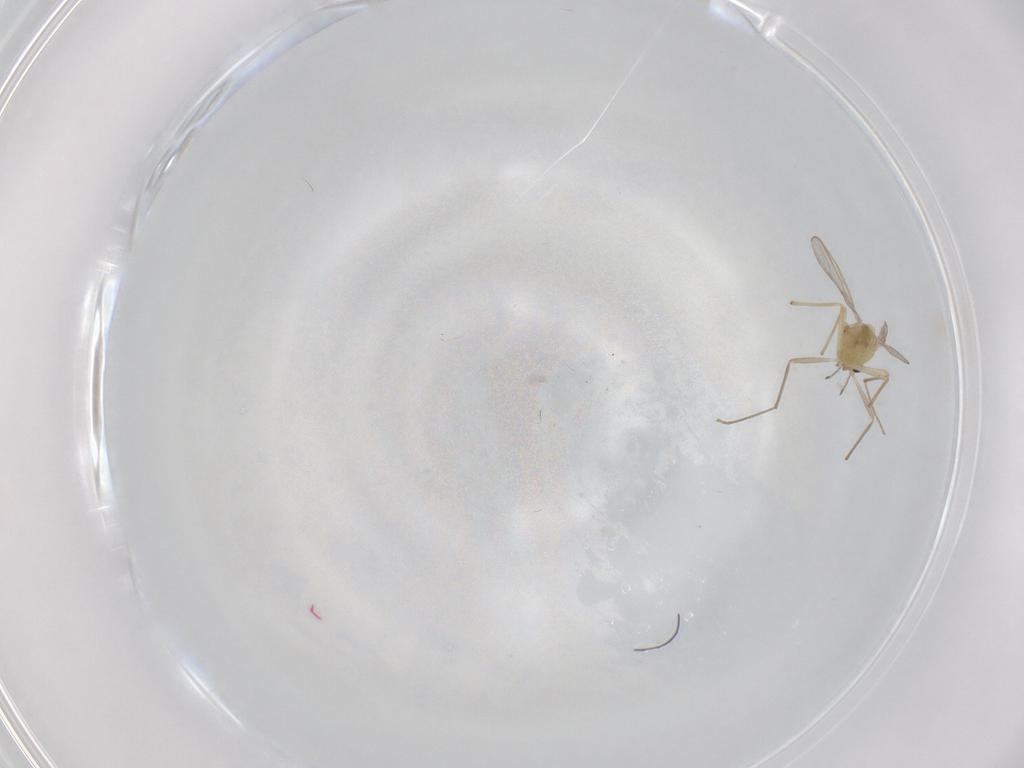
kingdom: Animalia
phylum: Arthropoda
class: Insecta
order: Diptera
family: Chironomidae
